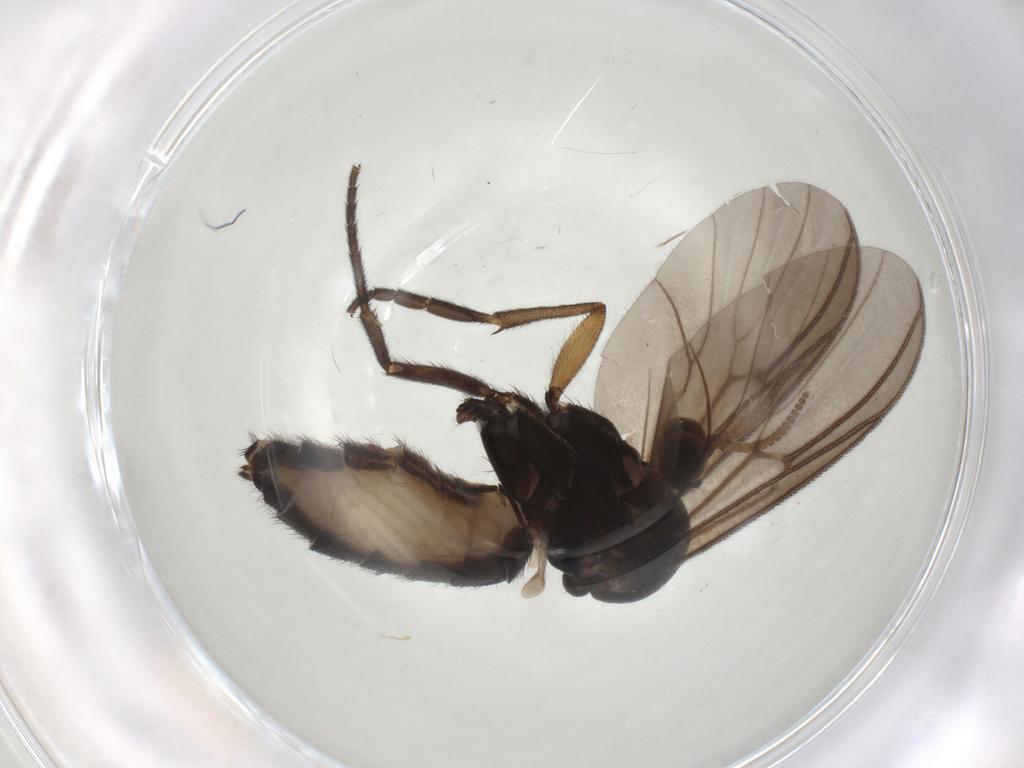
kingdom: Animalia
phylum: Arthropoda
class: Insecta
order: Diptera
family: Mycetophilidae
